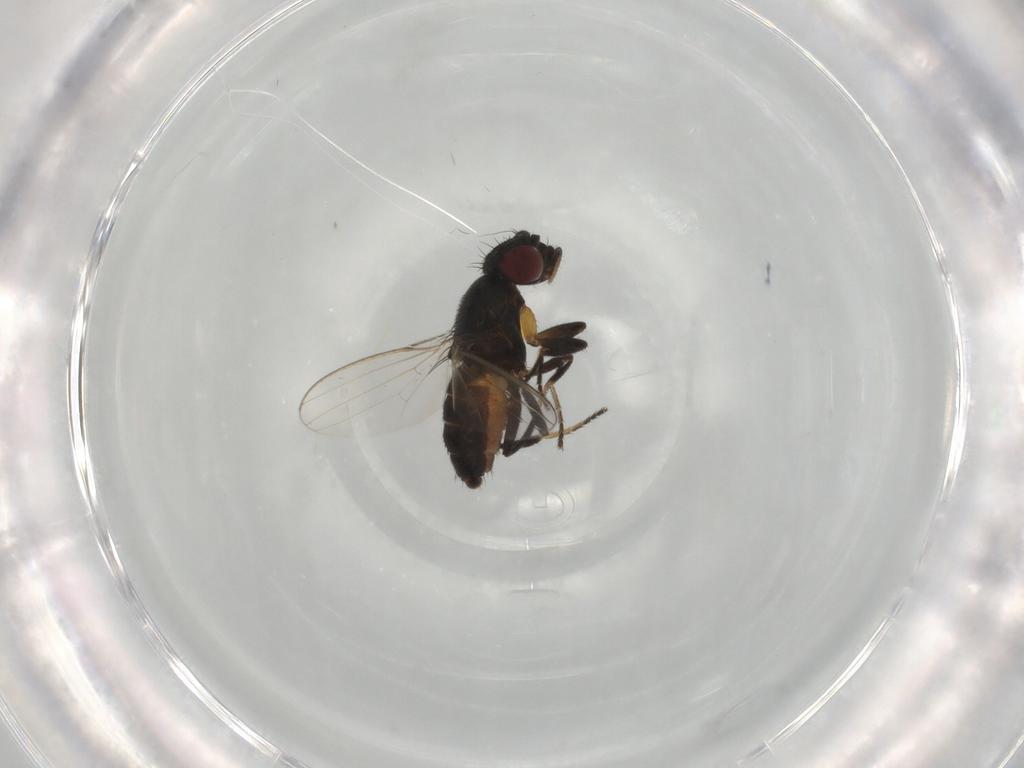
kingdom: Animalia
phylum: Arthropoda
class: Insecta
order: Diptera
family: Milichiidae
